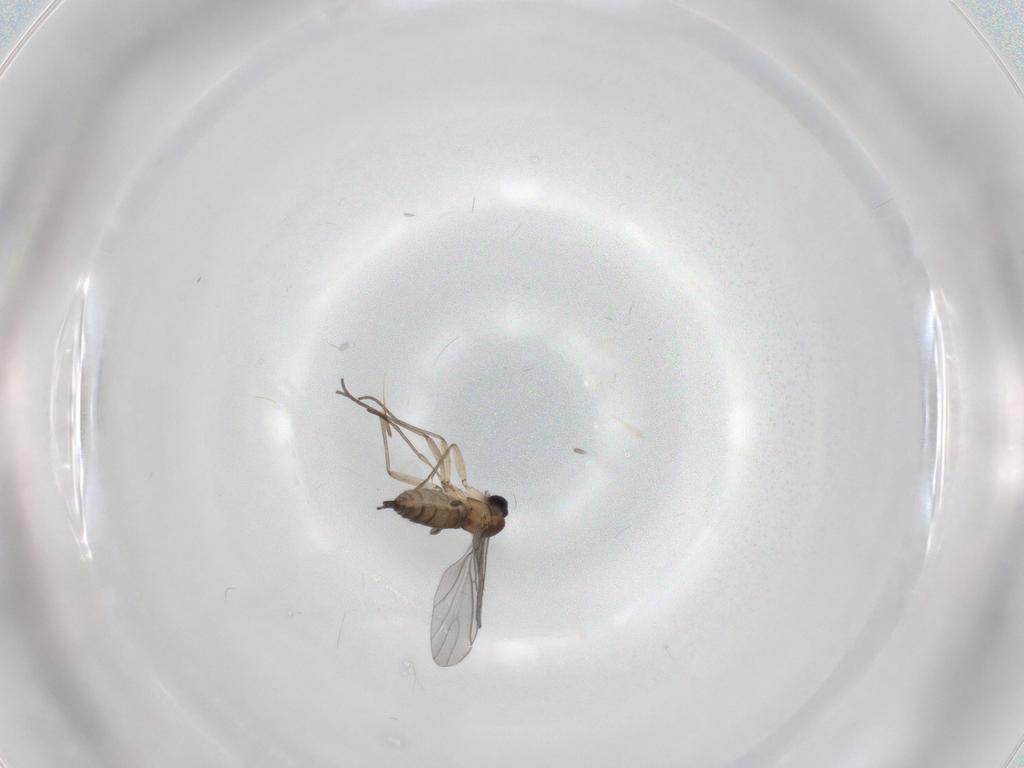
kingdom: Animalia
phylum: Arthropoda
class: Insecta
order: Diptera
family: Sciaridae
